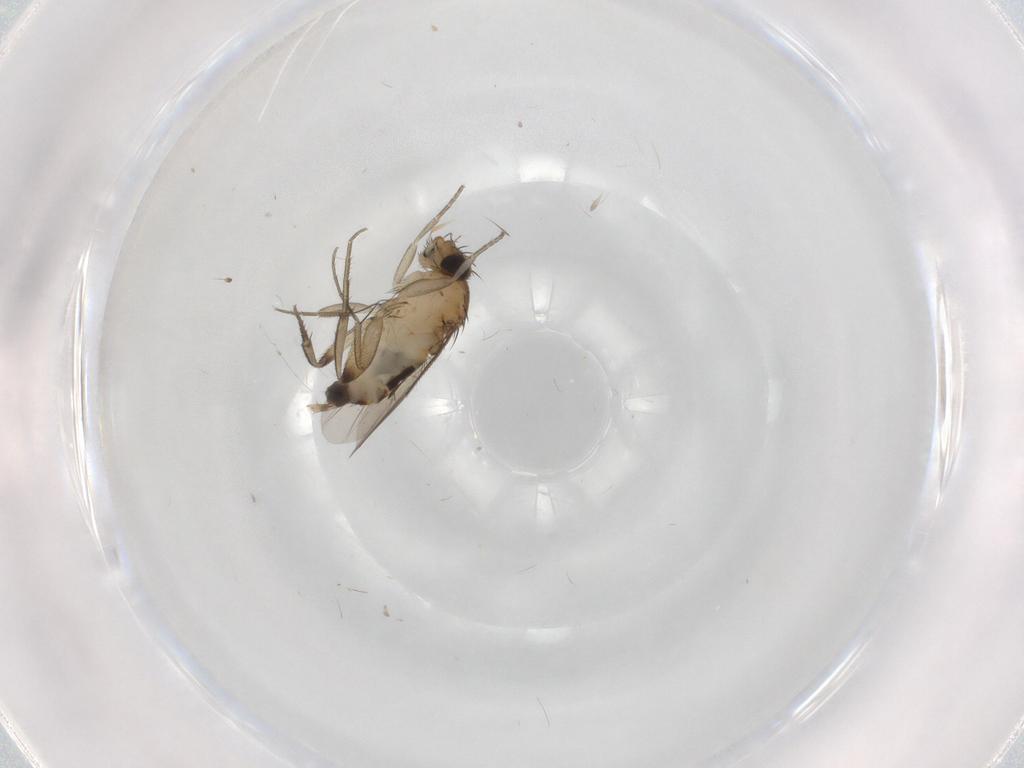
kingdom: Animalia
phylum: Arthropoda
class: Insecta
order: Diptera
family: Phoridae
